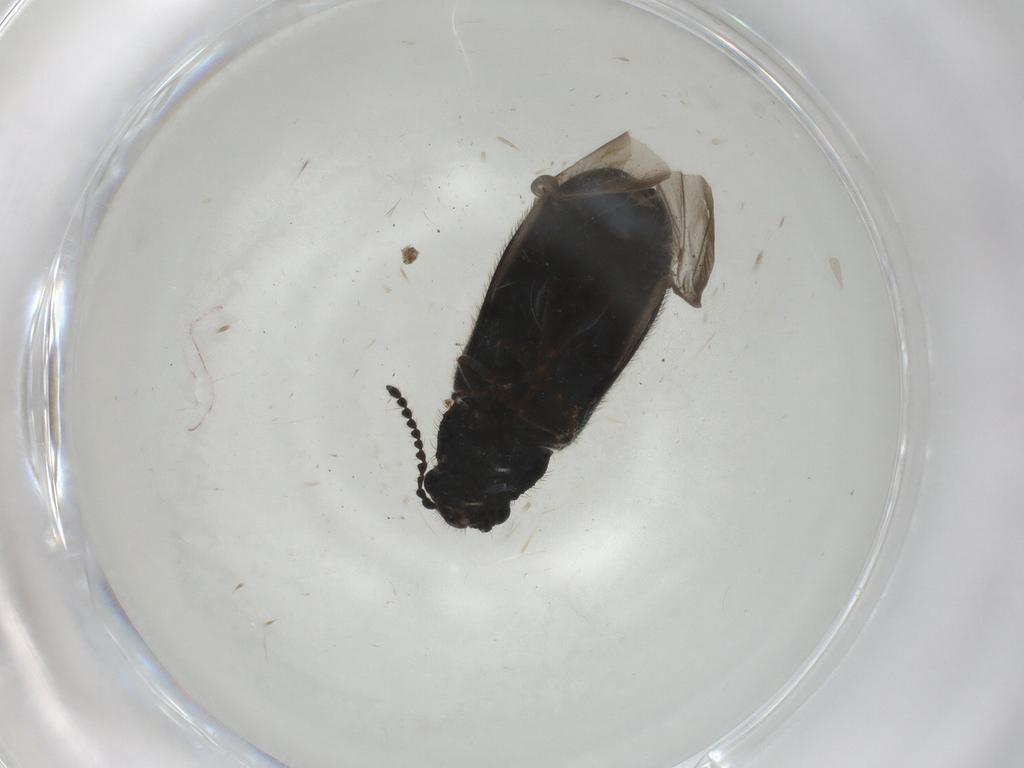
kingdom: Animalia
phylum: Arthropoda
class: Insecta
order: Coleoptera
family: Melyridae
